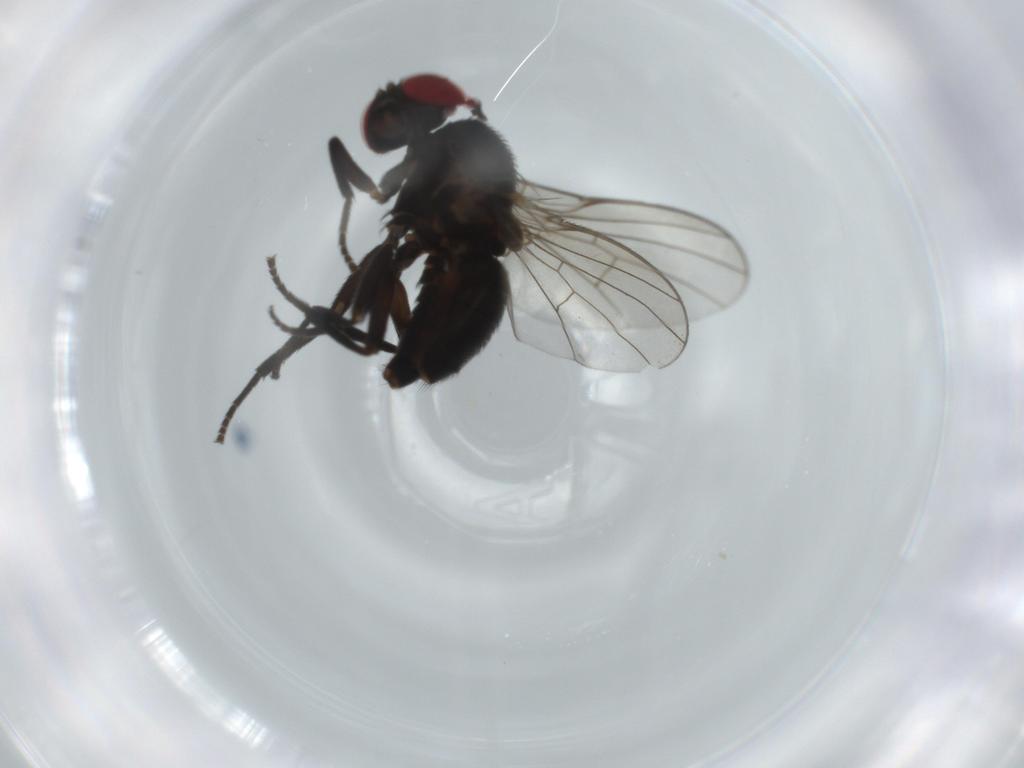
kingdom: Animalia
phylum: Arthropoda
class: Insecta
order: Diptera
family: Agromyzidae
